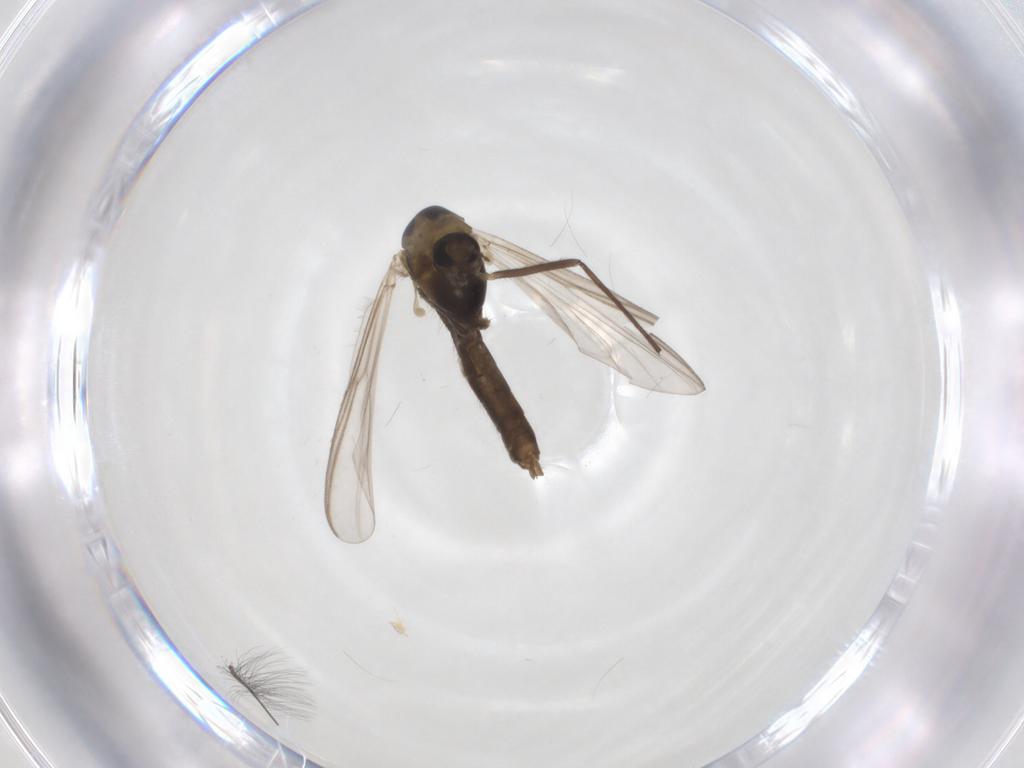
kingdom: Animalia
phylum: Arthropoda
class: Insecta
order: Diptera
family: Chironomidae
